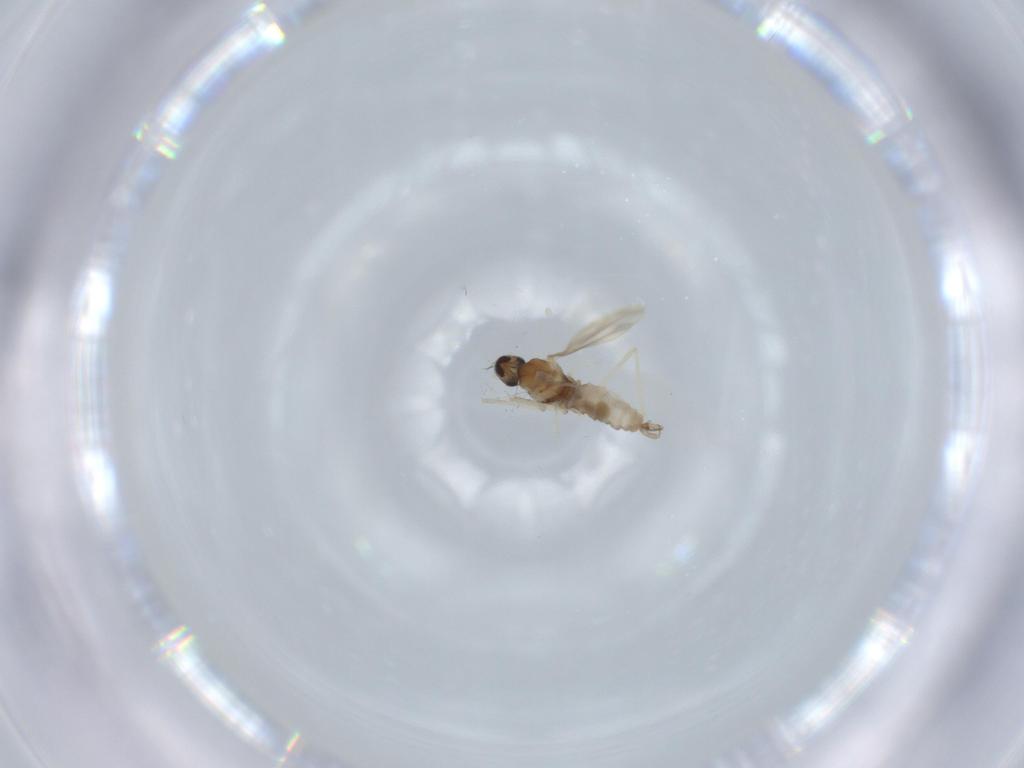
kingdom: Animalia
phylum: Arthropoda
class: Insecta
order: Diptera
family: Cecidomyiidae
